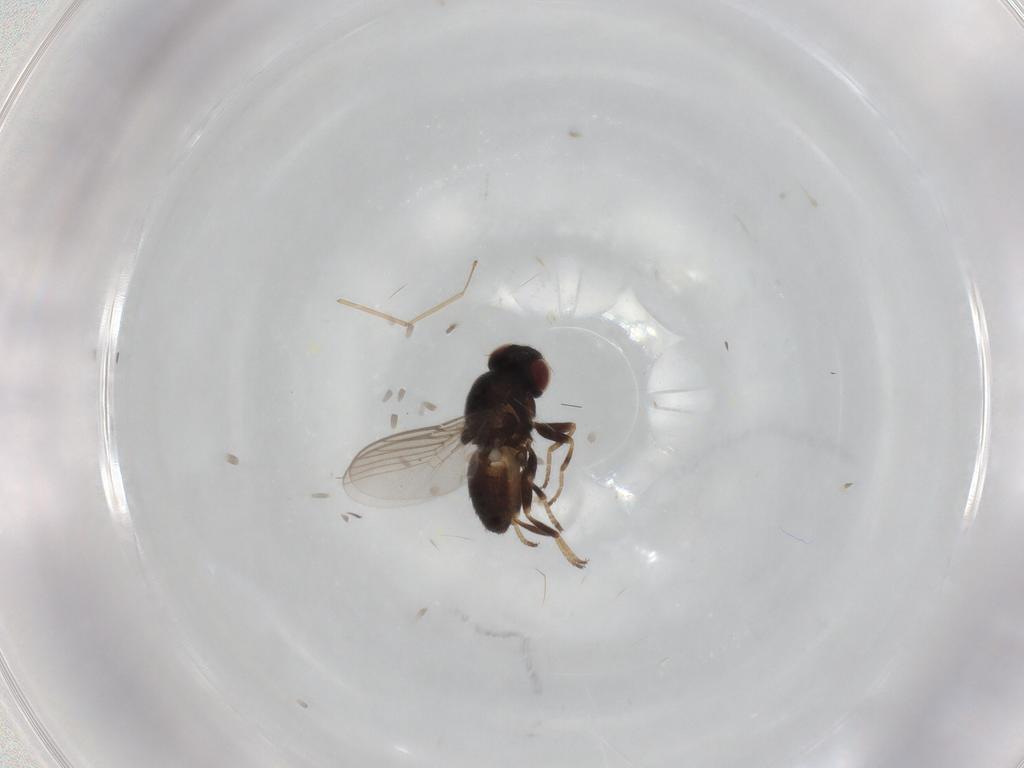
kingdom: Animalia
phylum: Arthropoda
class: Insecta
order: Diptera
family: Chloropidae
